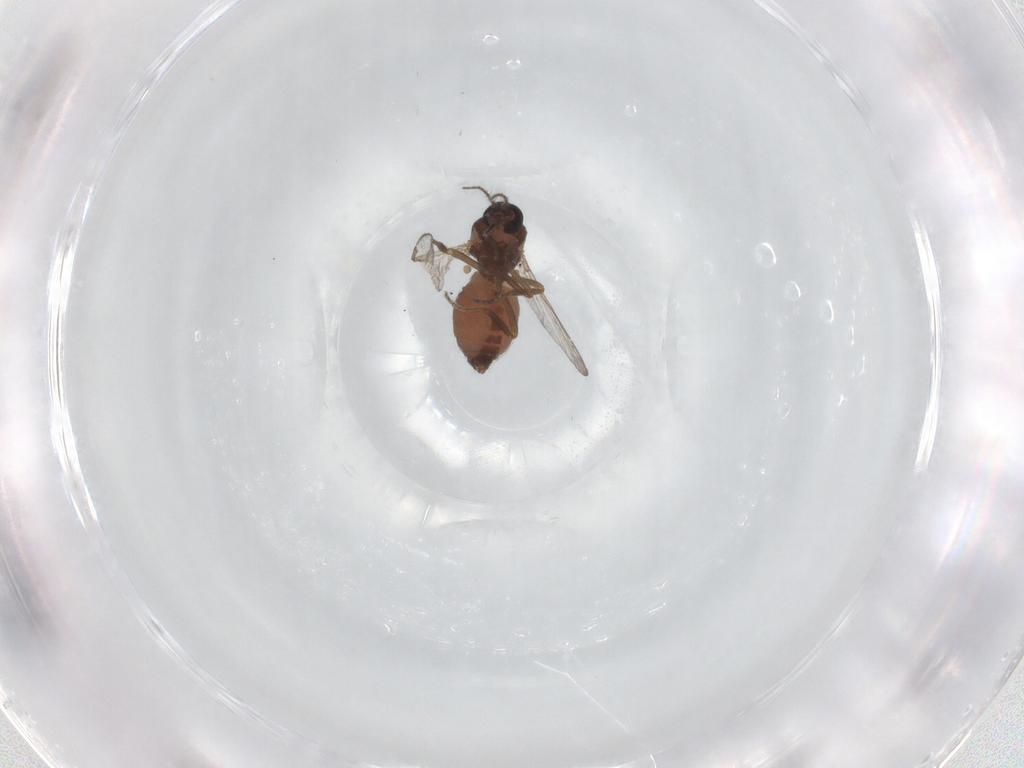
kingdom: Animalia
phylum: Arthropoda
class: Insecta
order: Diptera
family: Ceratopogonidae
